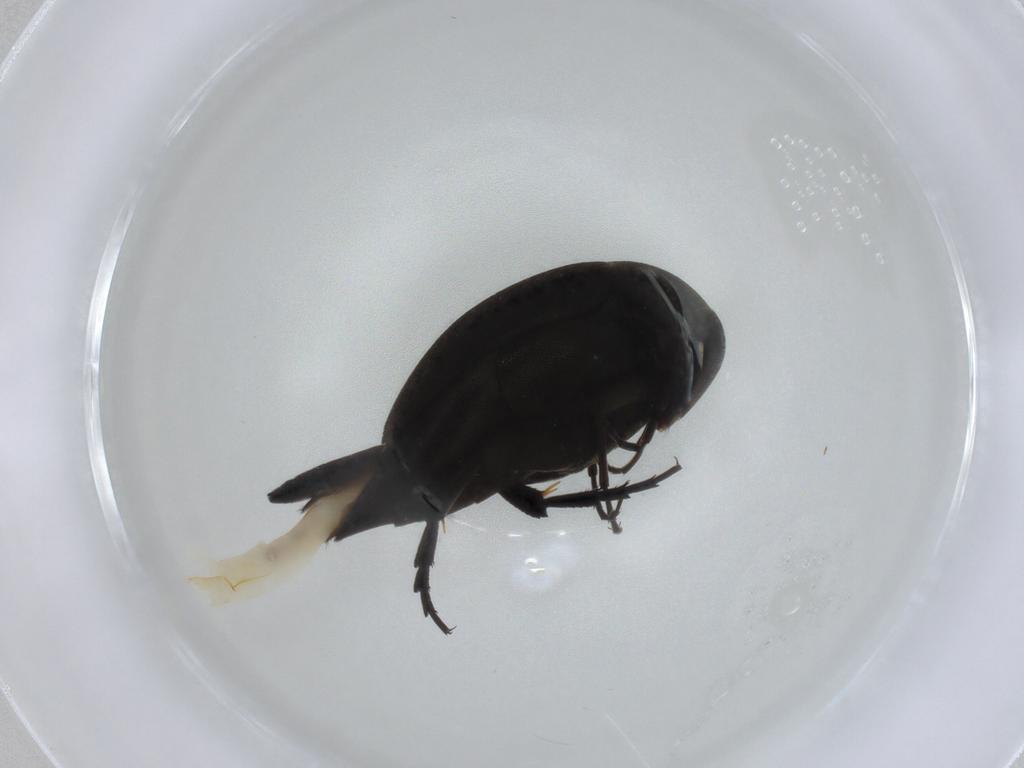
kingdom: Animalia
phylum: Arthropoda
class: Insecta
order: Coleoptera
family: Mordellidae
